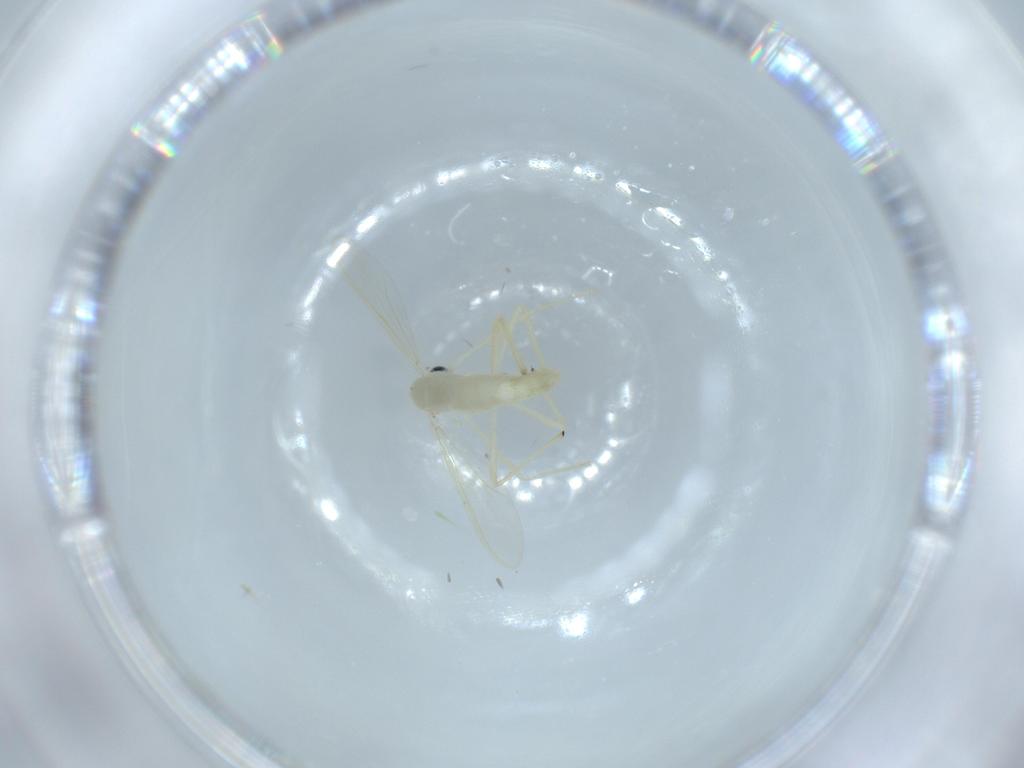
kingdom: Animalia
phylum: Arthropoda
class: Insecta
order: Diptera
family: Chironomidae
